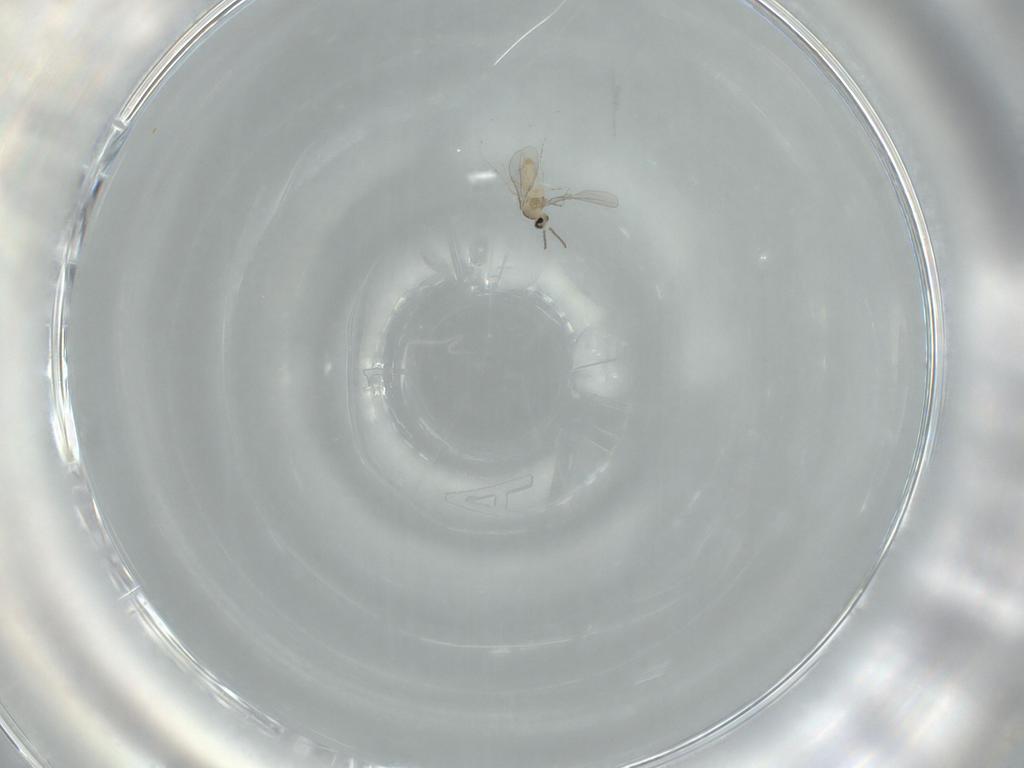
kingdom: Animalia
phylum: Arthropoda
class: Insecta
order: Diptera
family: Cecidomyiidae
